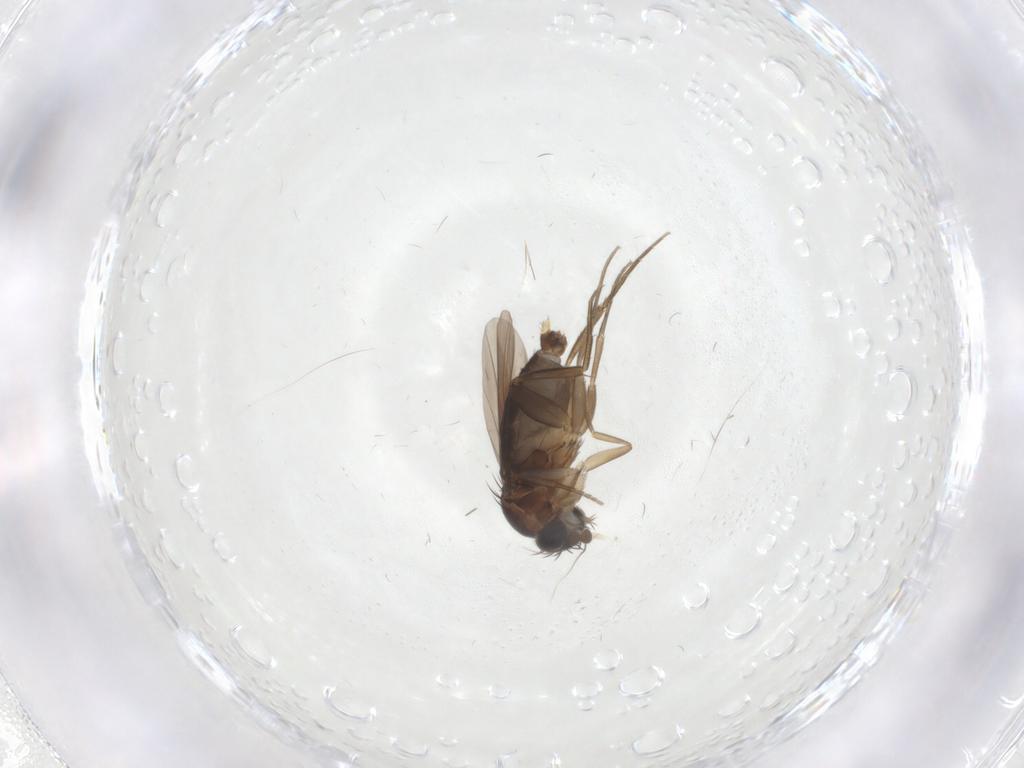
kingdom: Animalia
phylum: Arthropoda
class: Insecta
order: Diptera
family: Phoridae
